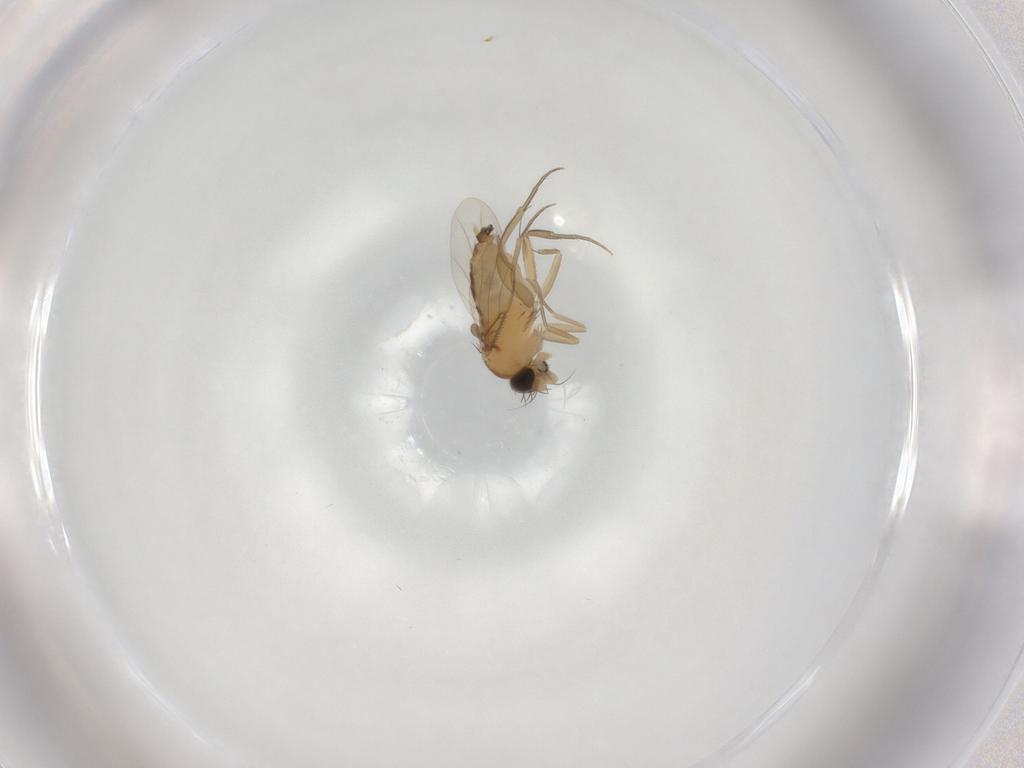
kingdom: Animalia
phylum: Arthropoda
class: Insecta
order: Diptera
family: Phoridae
